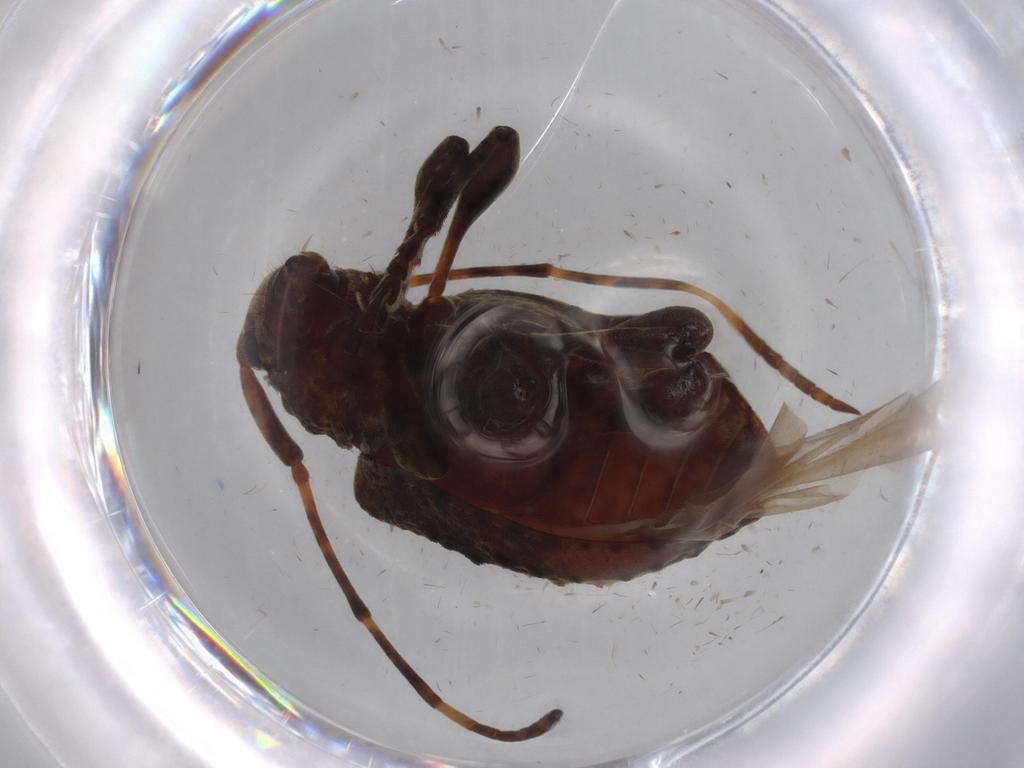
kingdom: Animalia
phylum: Arthropoda
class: Insecta
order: Coleoptera
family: Cerambycidae
